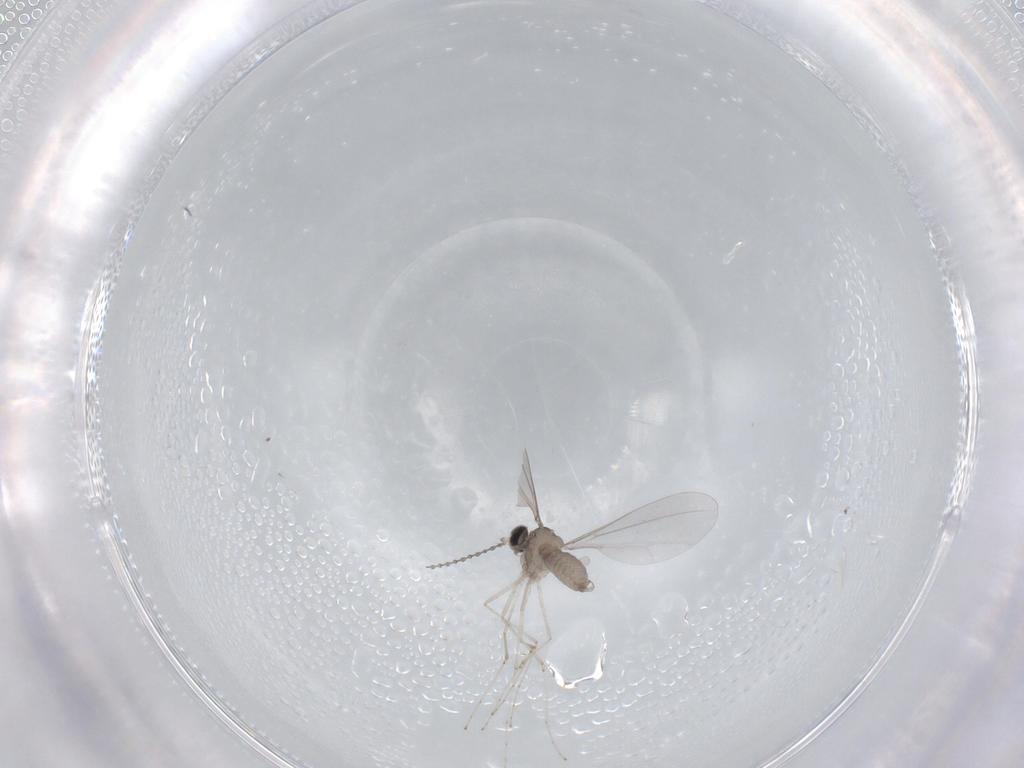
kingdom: Animalia
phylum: Arthropoda
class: Insecta
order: Diptera
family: Cecidomyiidae
